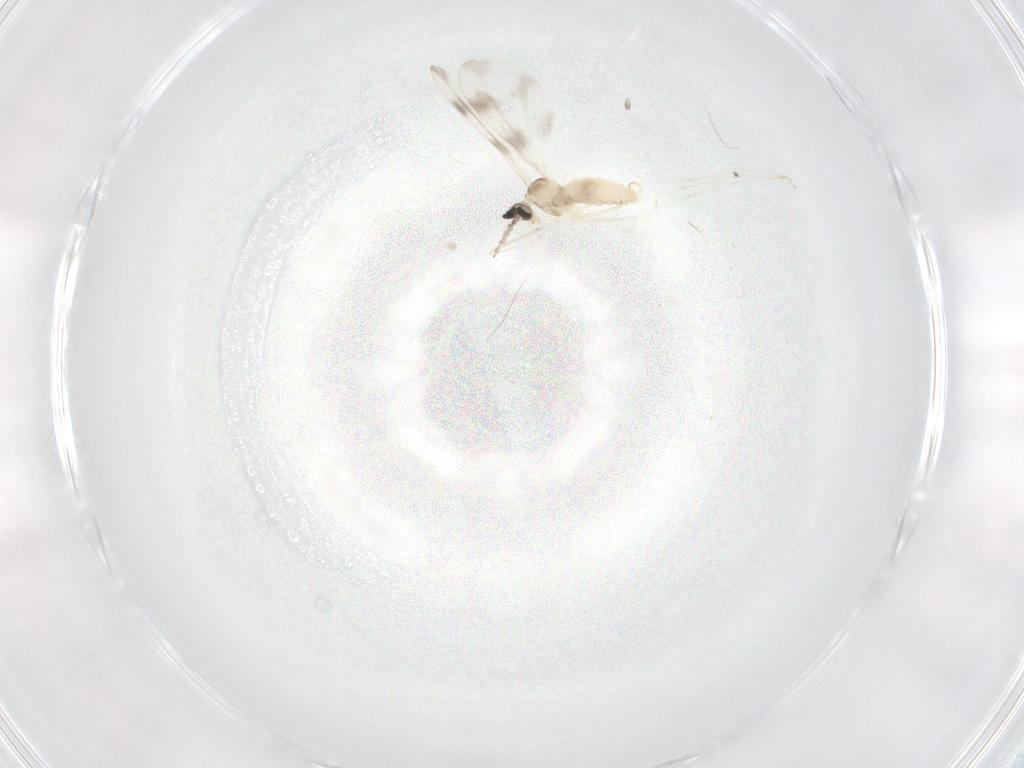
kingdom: Animalia
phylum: Arthropoda
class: Insecta
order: Diptera
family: Cecidomyiidae
